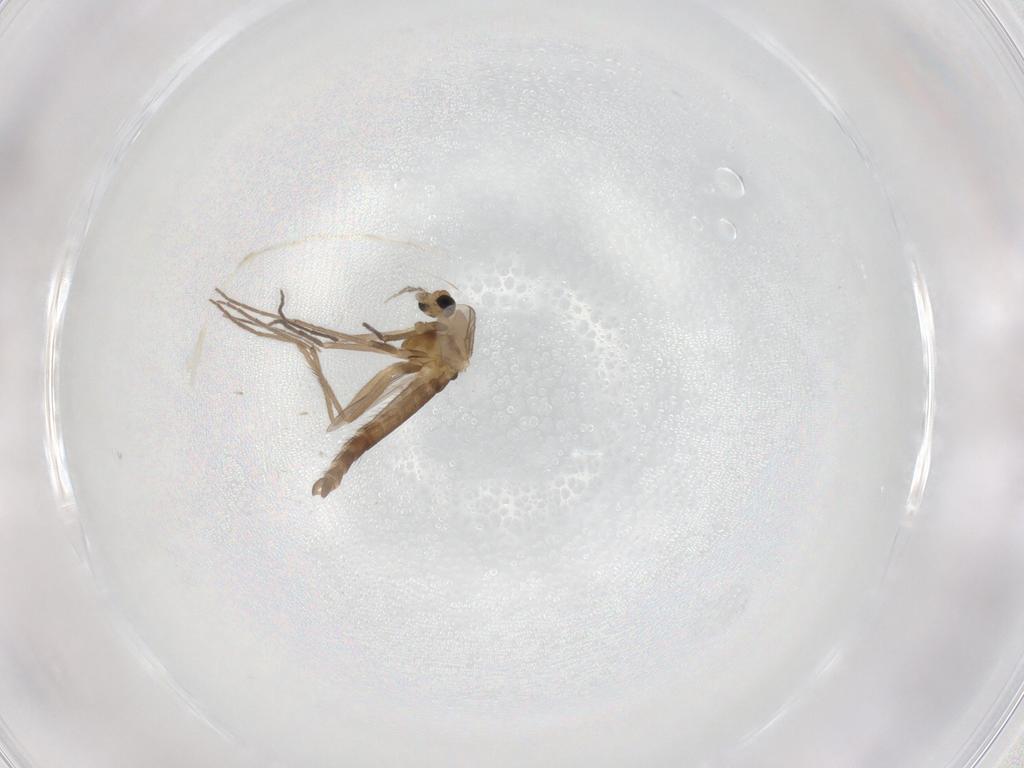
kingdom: Animalia
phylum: Arthropoda
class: Insecta
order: Diptera
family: Chironomidae
